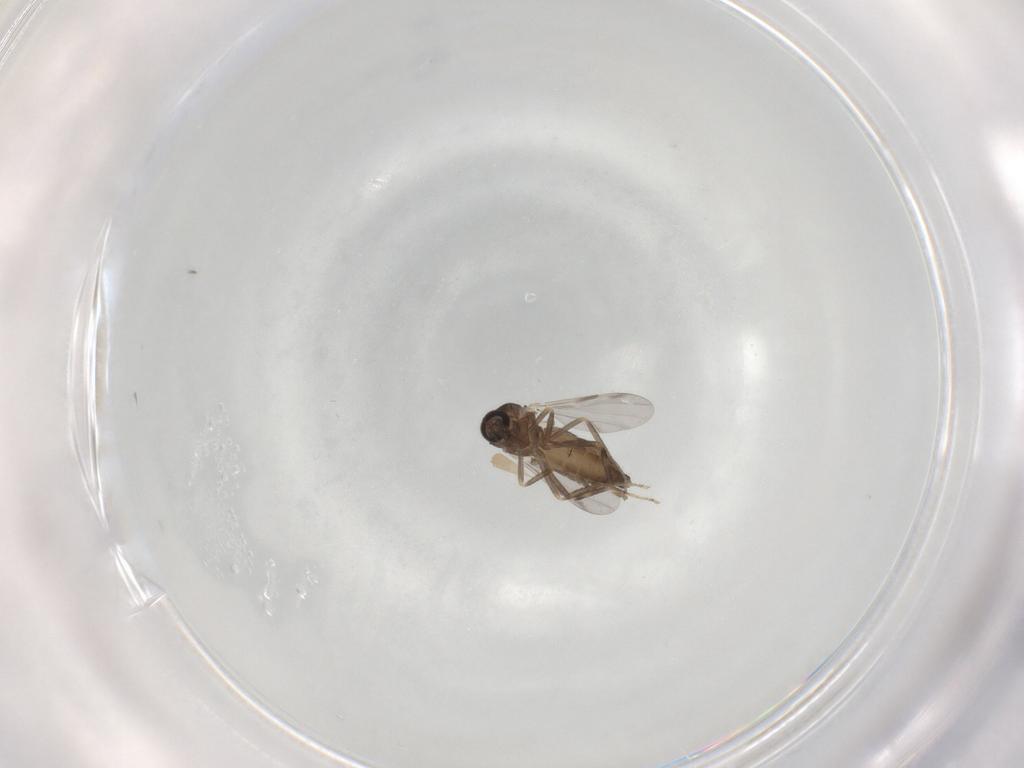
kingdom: Animalia
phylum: Arthropoda
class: Insecta
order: Diptera
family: Ceratopogonidae
